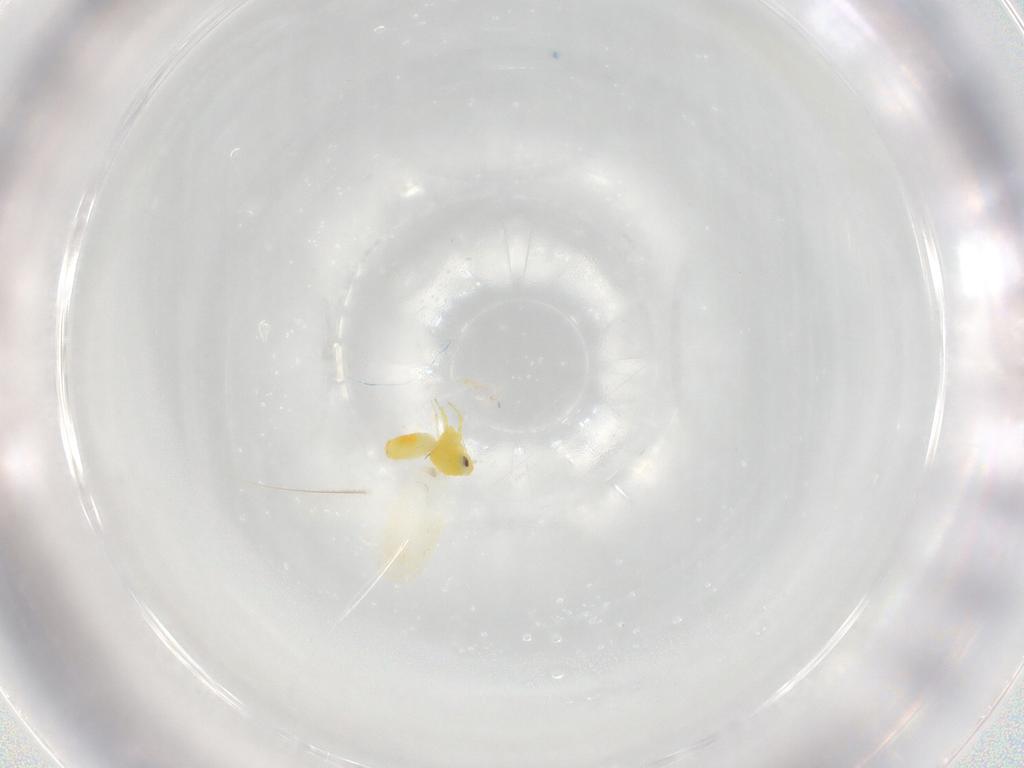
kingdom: Animalia
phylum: Arthropoda
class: Insecta
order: Hemiptera
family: Aleyrodidae
